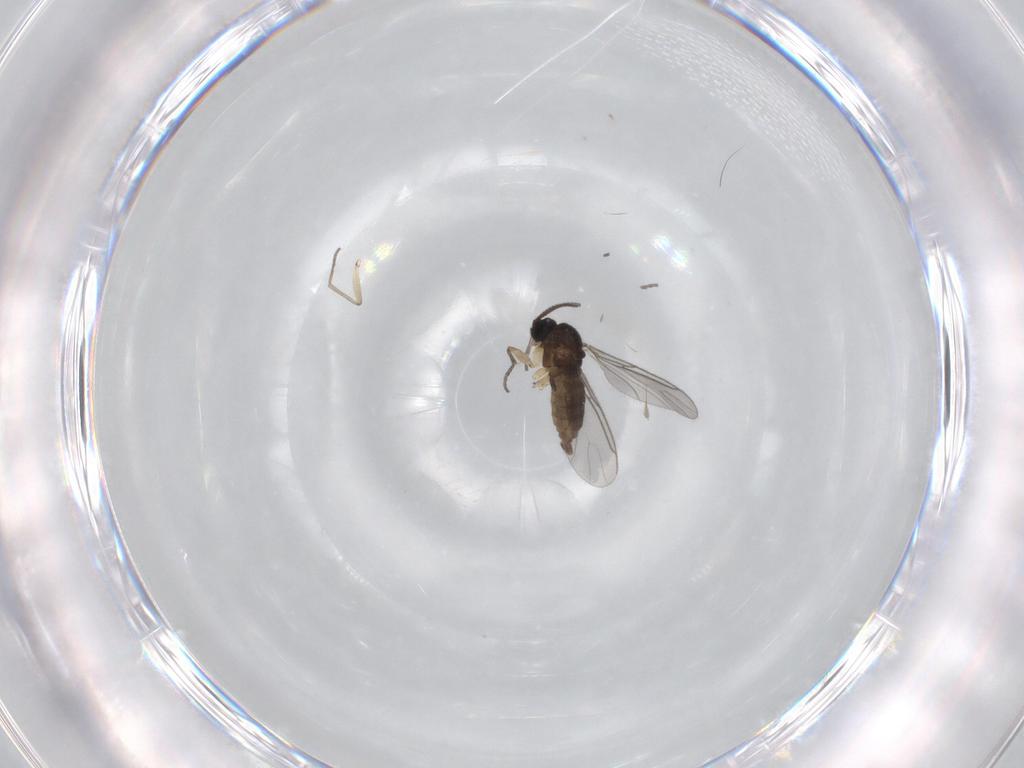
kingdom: Animalia
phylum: Arthropoda
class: Insecta
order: Diptera
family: Sciaridae
